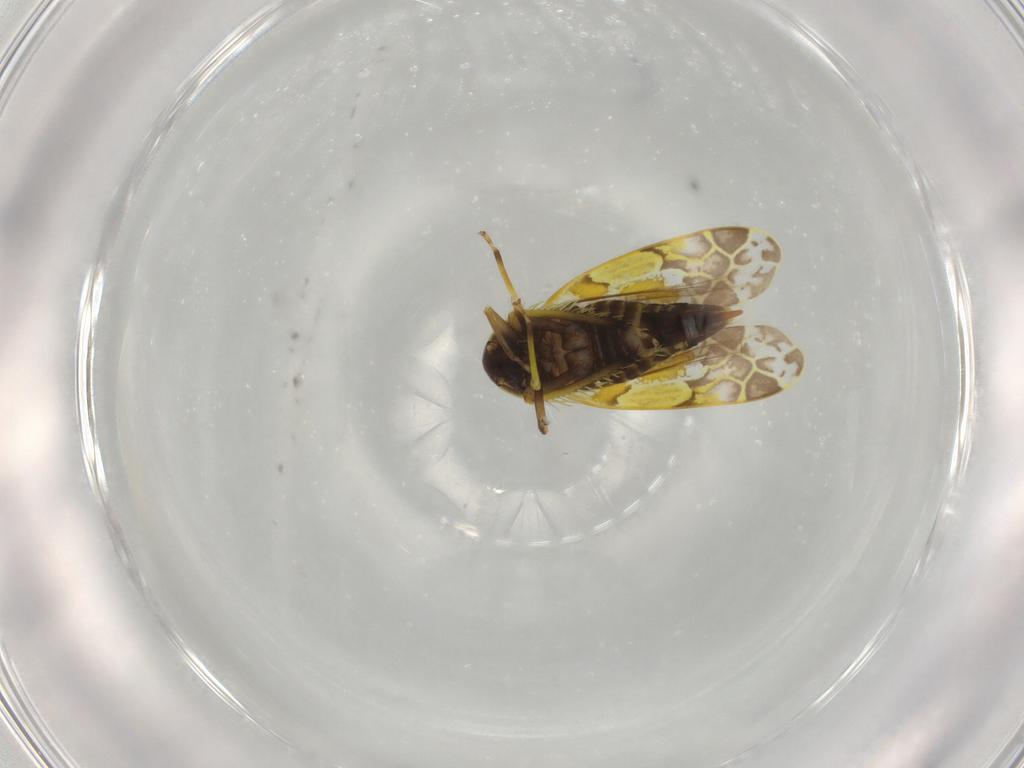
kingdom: Animalia
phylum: Arthropoda
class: Insecta
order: Hemiptera
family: Cicadellidae
